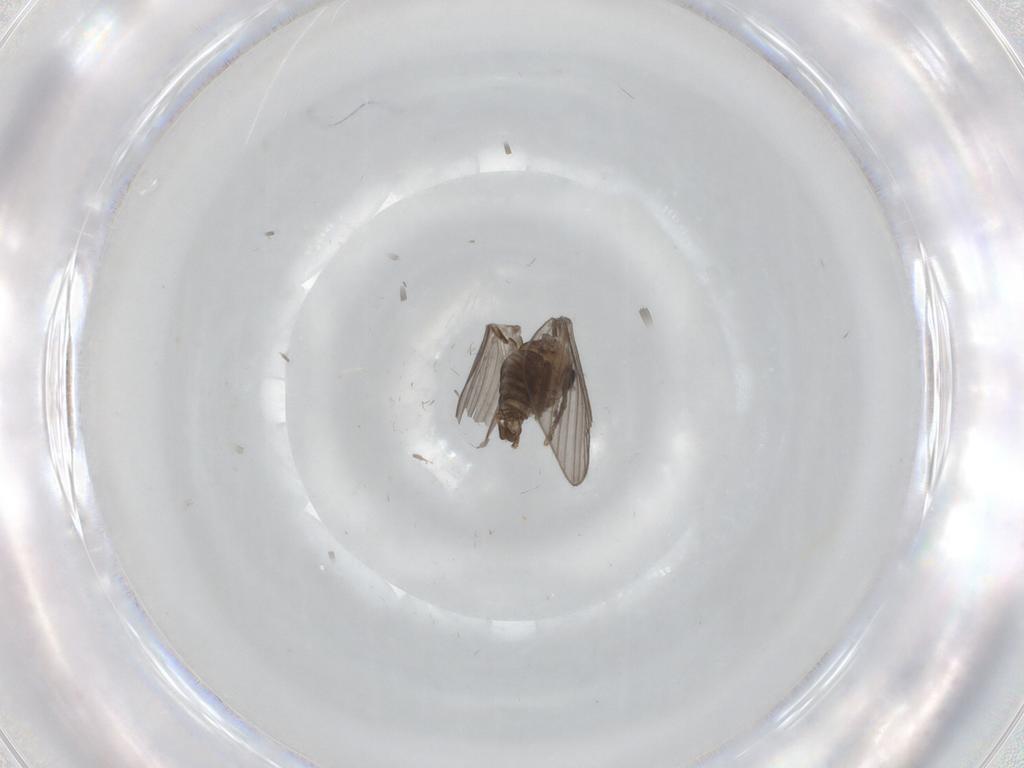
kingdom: Animalia
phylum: Arthropoda
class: Insecta
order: Diptera
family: Psychodidae
